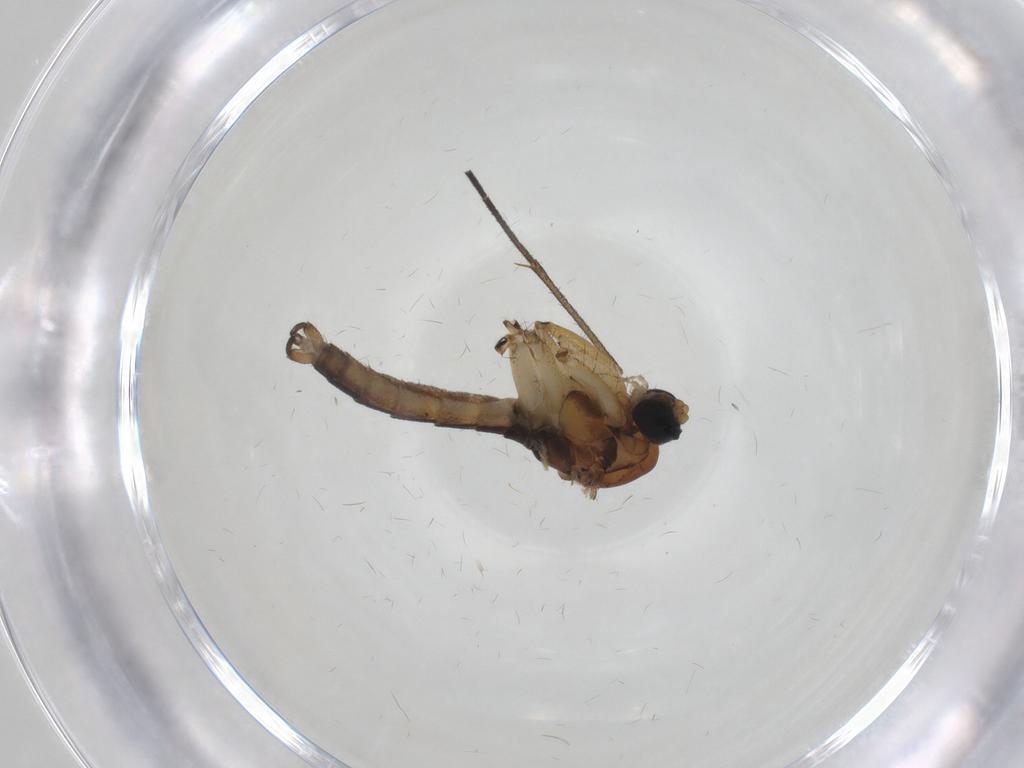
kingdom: Animalia
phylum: Arthropoda
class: Insecta
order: Diptera
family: Sciaridae
